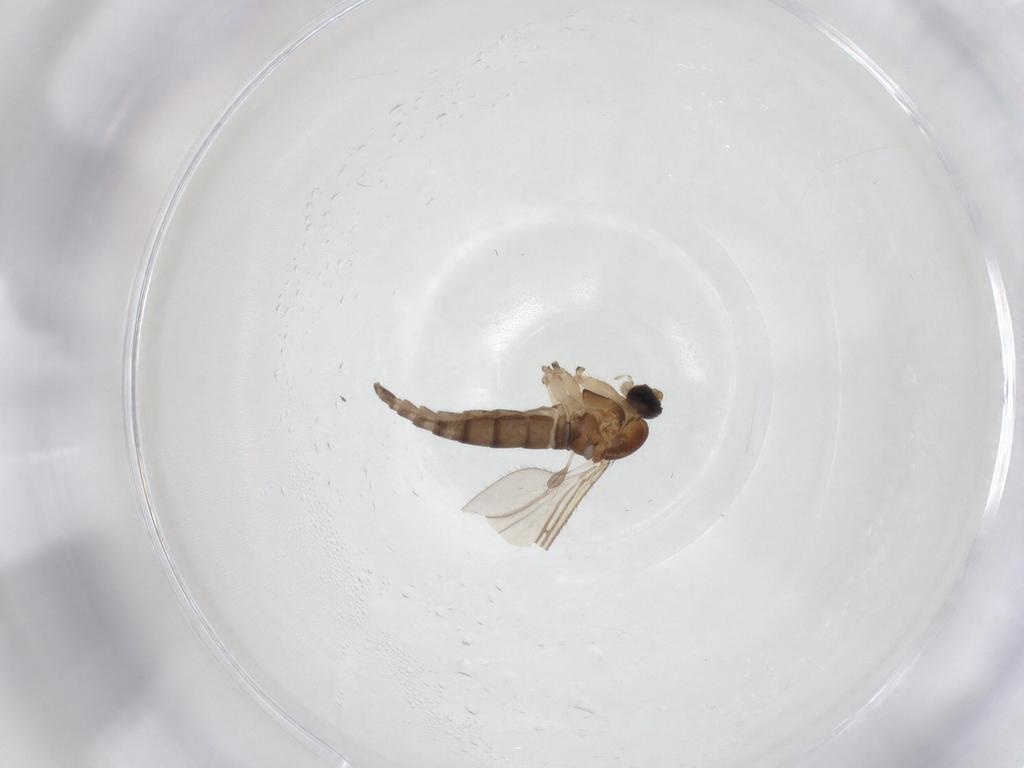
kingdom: Animalia
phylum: Arthropoda
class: Insecta
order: Diptera
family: Sciaridae
